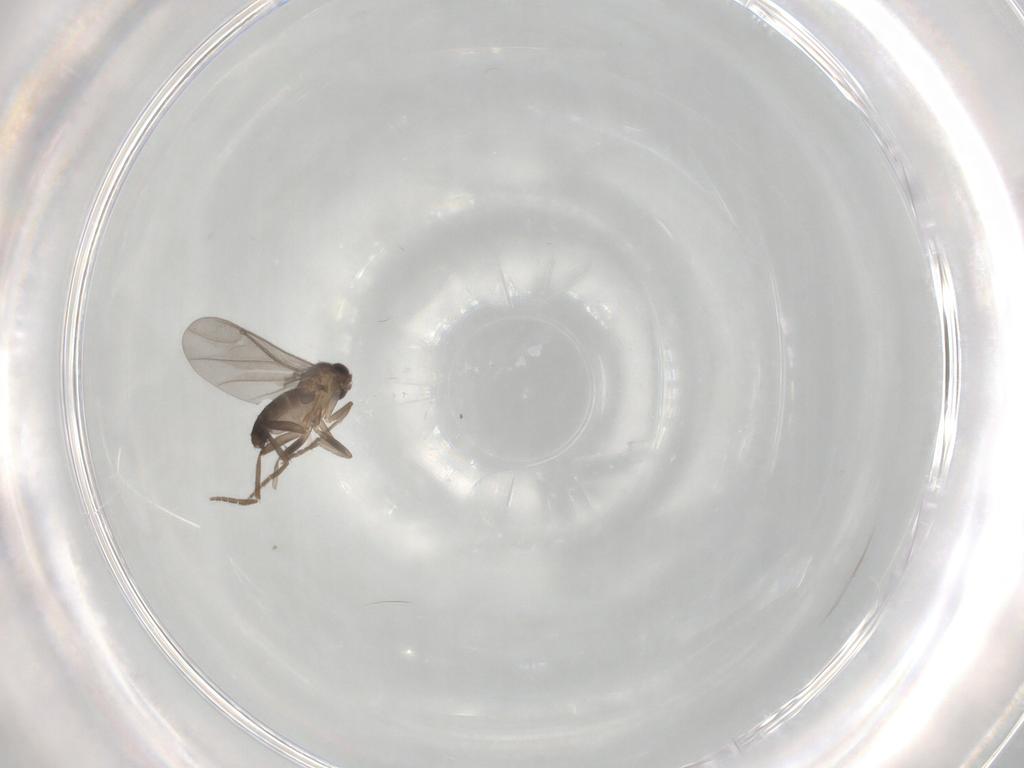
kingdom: Animalia
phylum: Arthropoda
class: Insecta
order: Diptera
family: Phoridae
